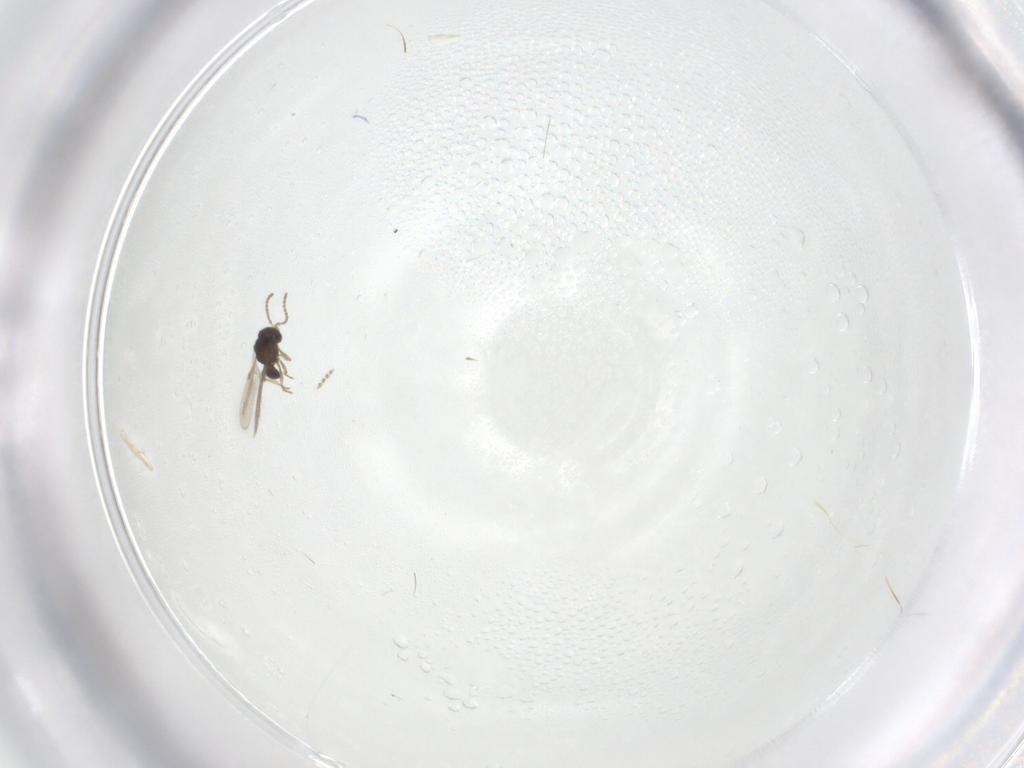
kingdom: Animalia
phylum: Arthropoda
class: Insecta
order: Hymenoptera
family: Scelionidae
